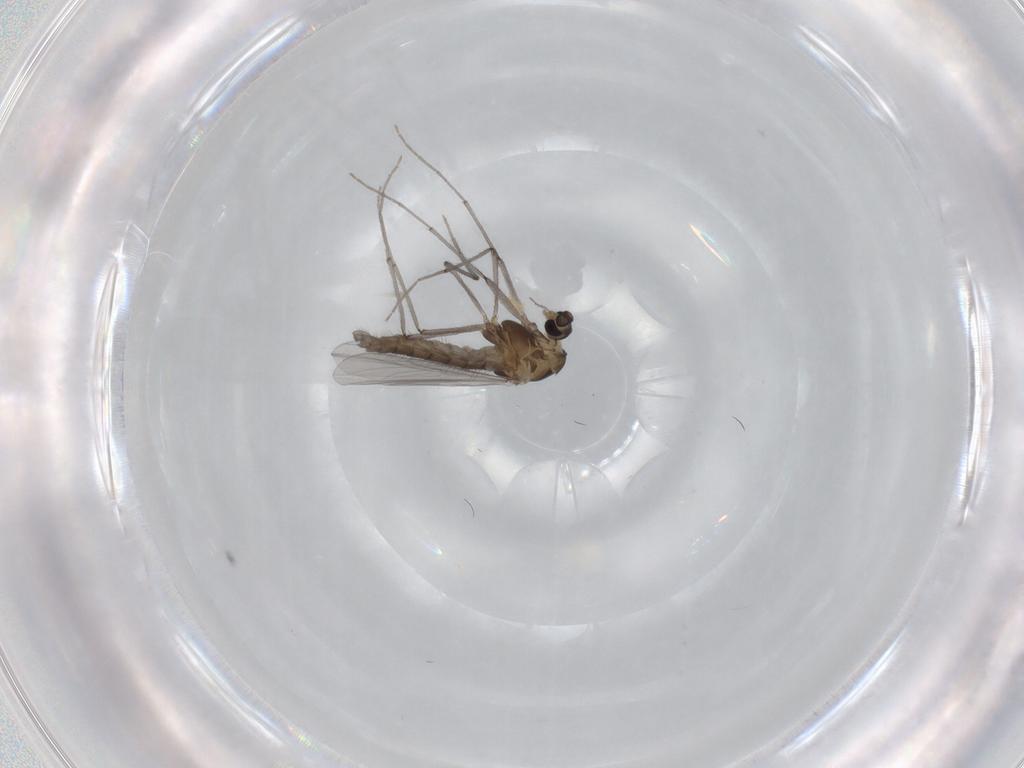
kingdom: Animalia
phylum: Arthropoda
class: Insecta
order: Diptera
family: Chironomidae
